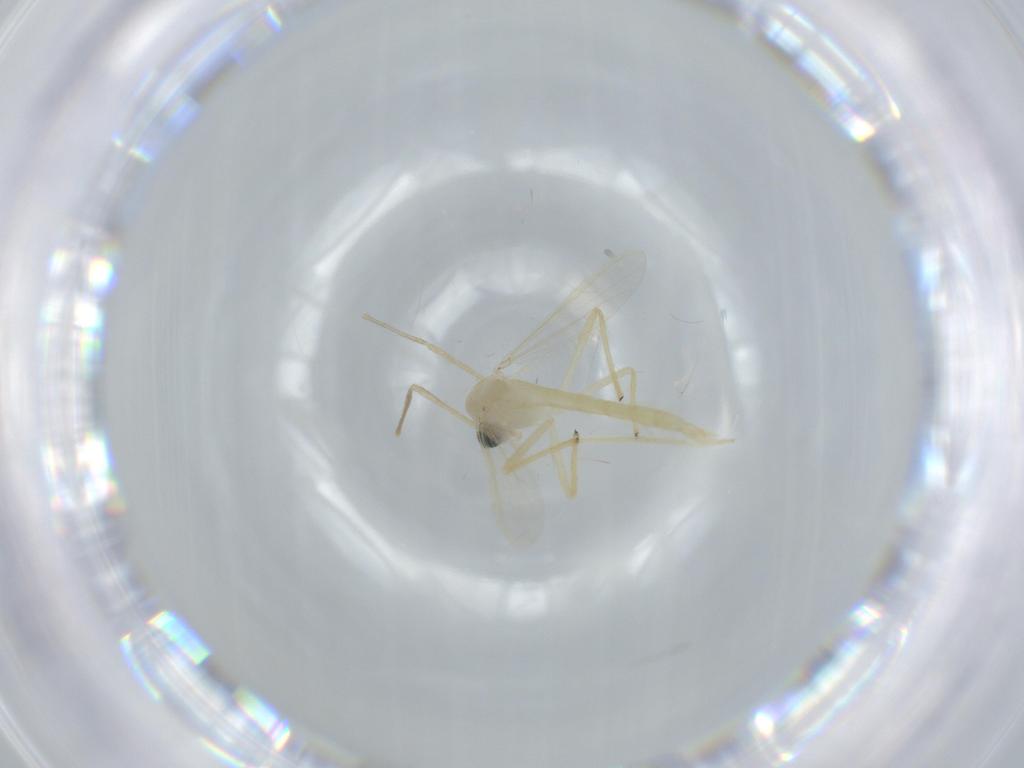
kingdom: Animalia
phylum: Arthropoda
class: Insecta
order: Diptera
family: Chironomidae
